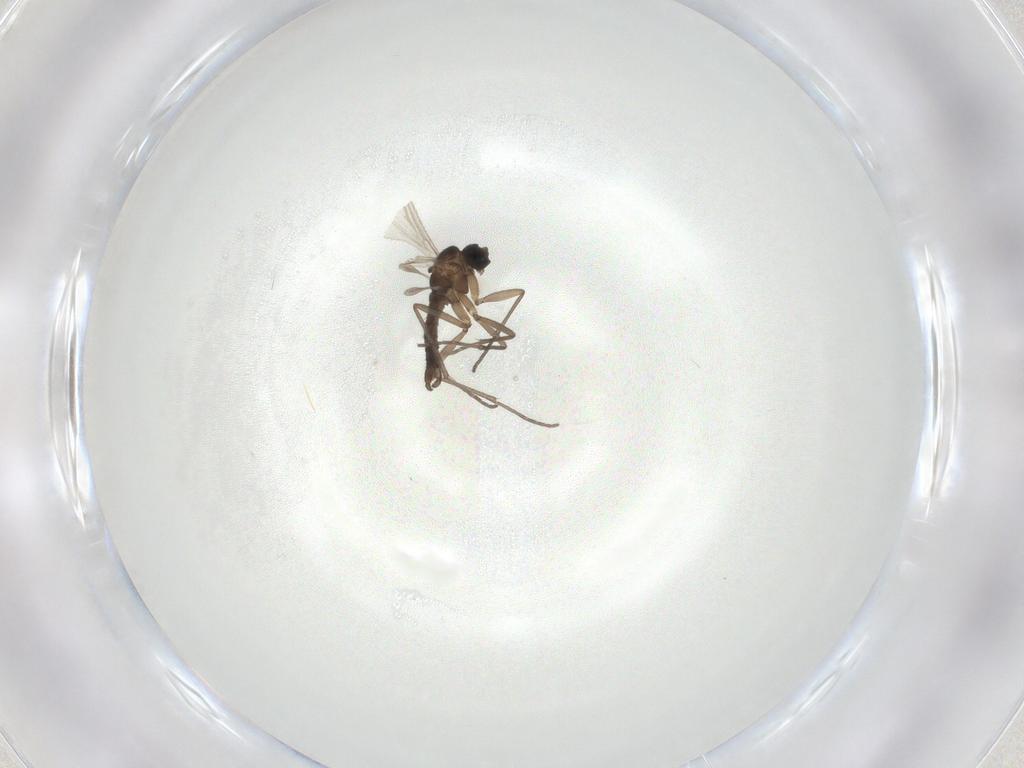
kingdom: Animalia
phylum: Arthropoda
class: Insecta
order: Diptera
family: Sciaridae
